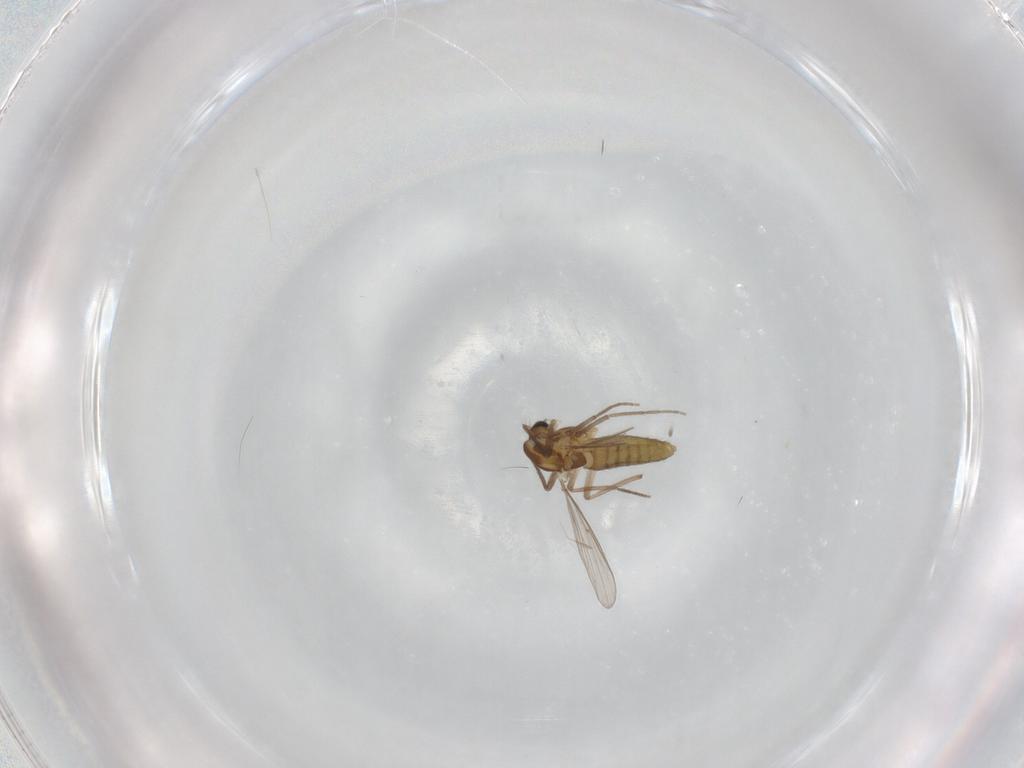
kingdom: Animalia
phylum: Arthropoda
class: Insecta
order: Diptera
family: Chironomidae
